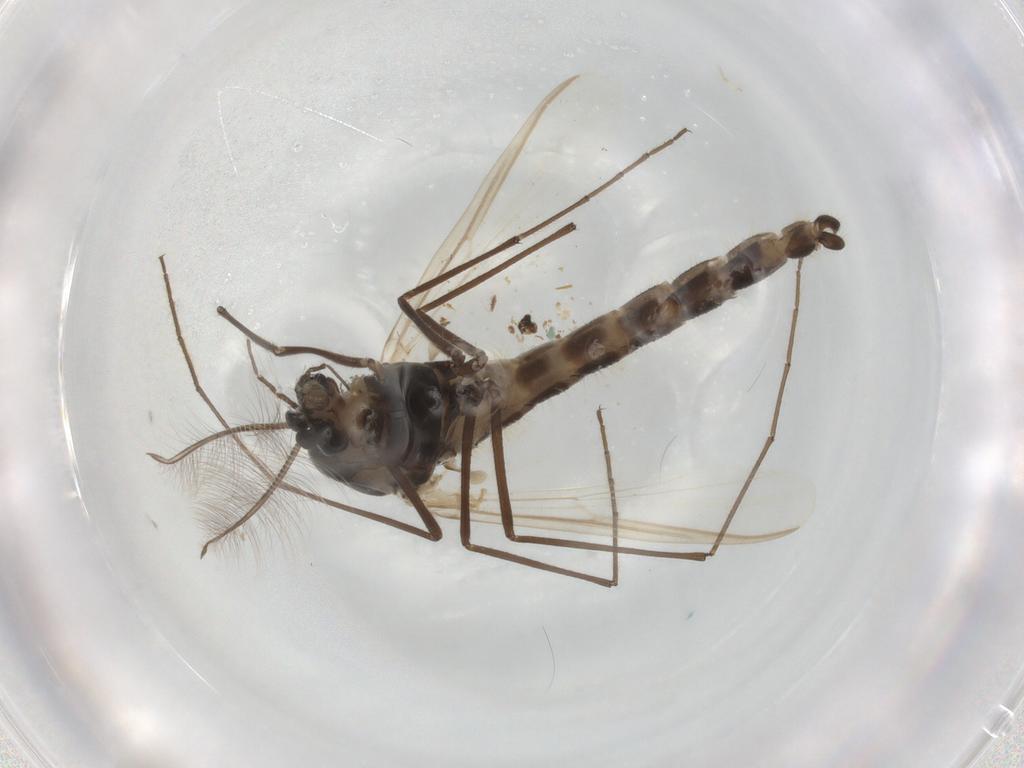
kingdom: Animalia
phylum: Arthropoda
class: Insecta
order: Diptera
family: Chironomidae
